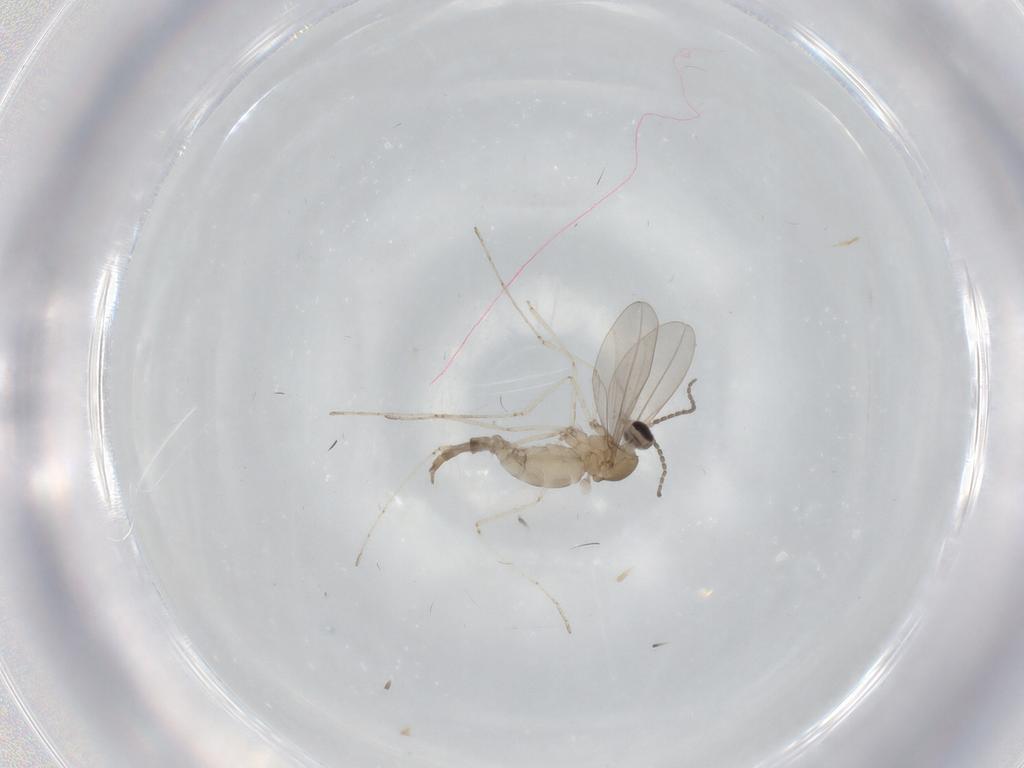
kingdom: Animalia
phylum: Arthropoda
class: Insecta
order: Diptera
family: Cecidomyiidae
